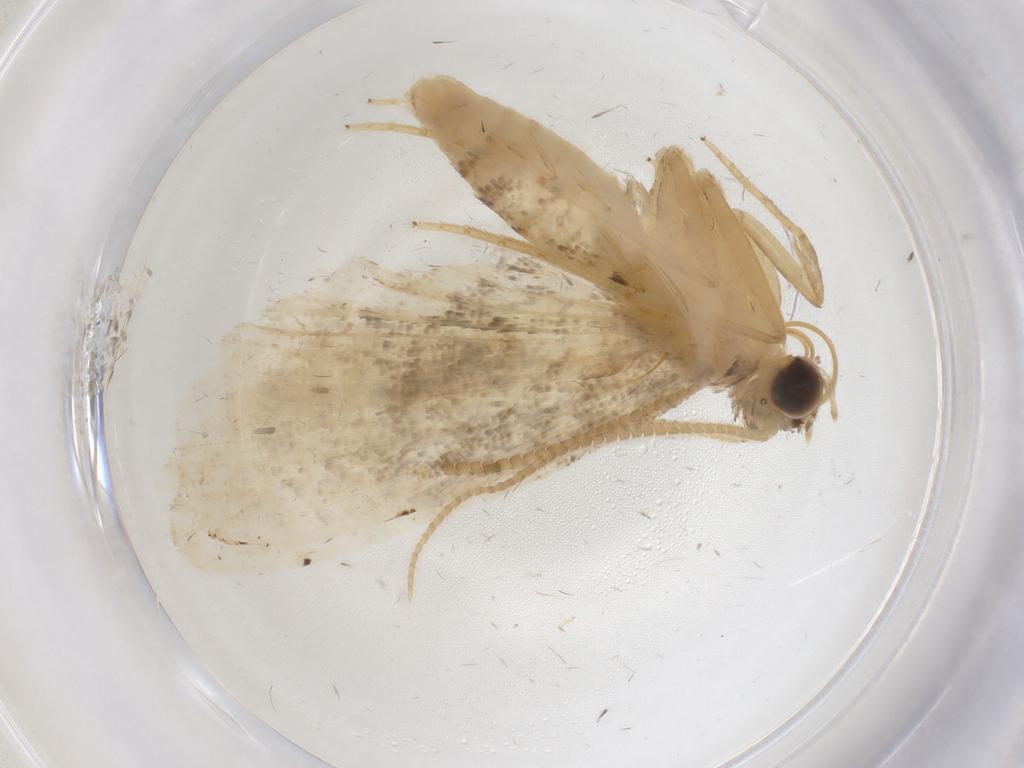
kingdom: Animalia
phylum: Arthropoda
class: Insecta
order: Lepidoptera
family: Crambidae
